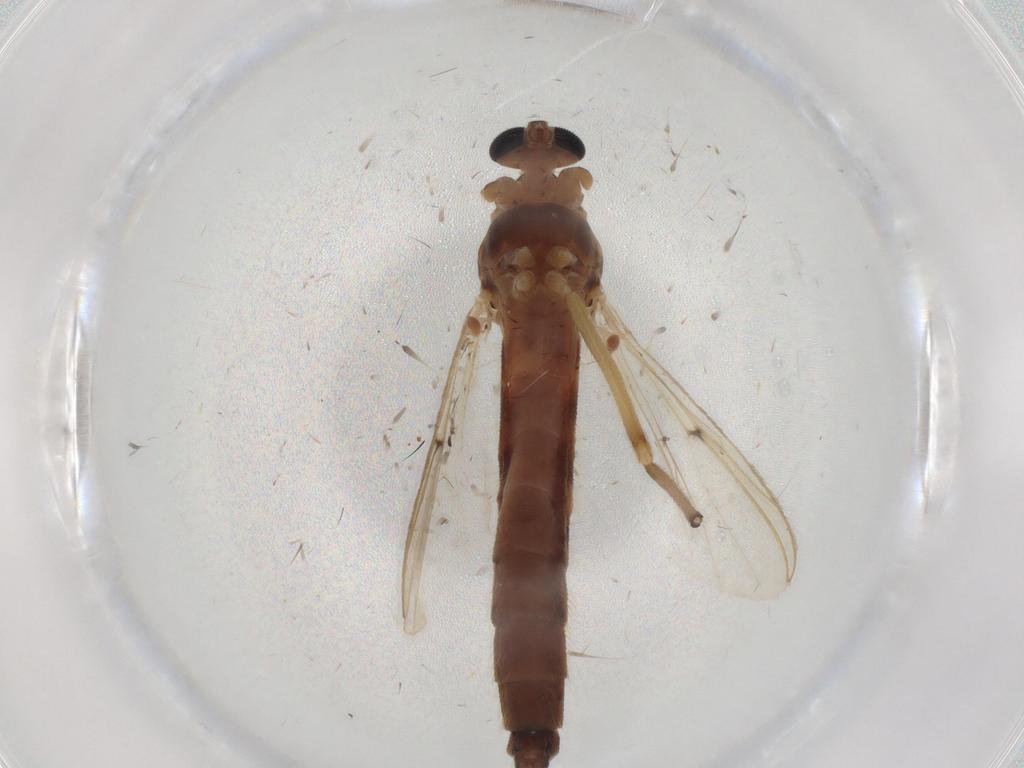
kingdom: Animalia
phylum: Arthropoda
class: Insecta
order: Diptera
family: Chironomidae
